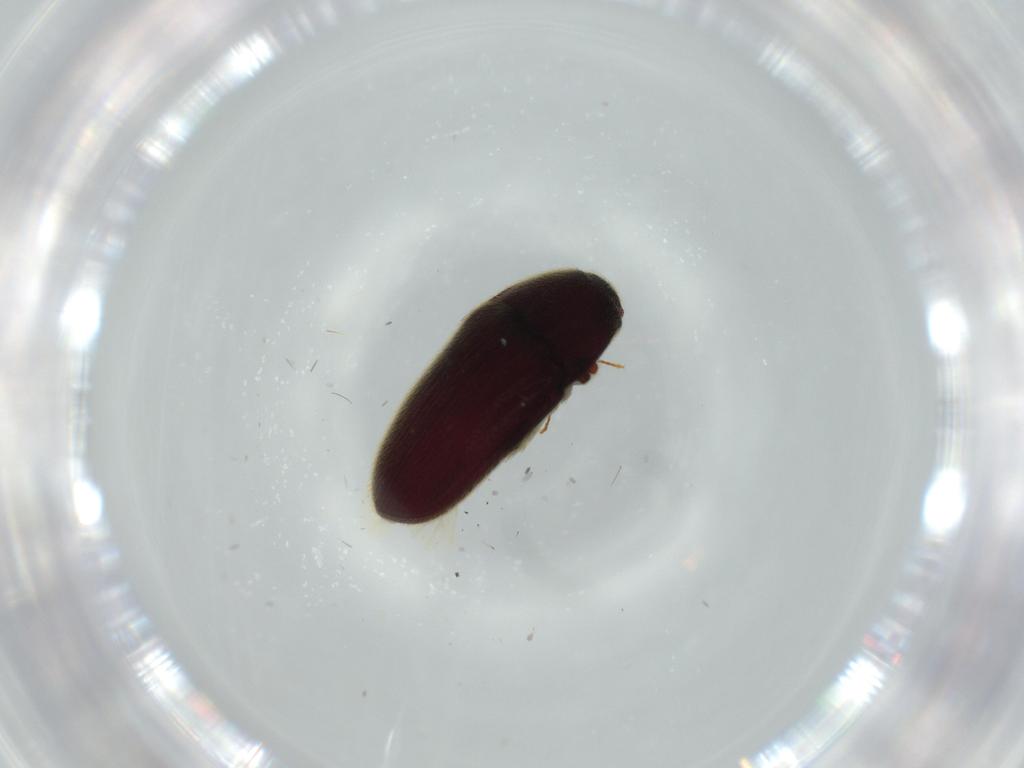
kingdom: Animalia
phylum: Arthropoda
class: Insecta
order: Coleoptera
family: Throscidae
